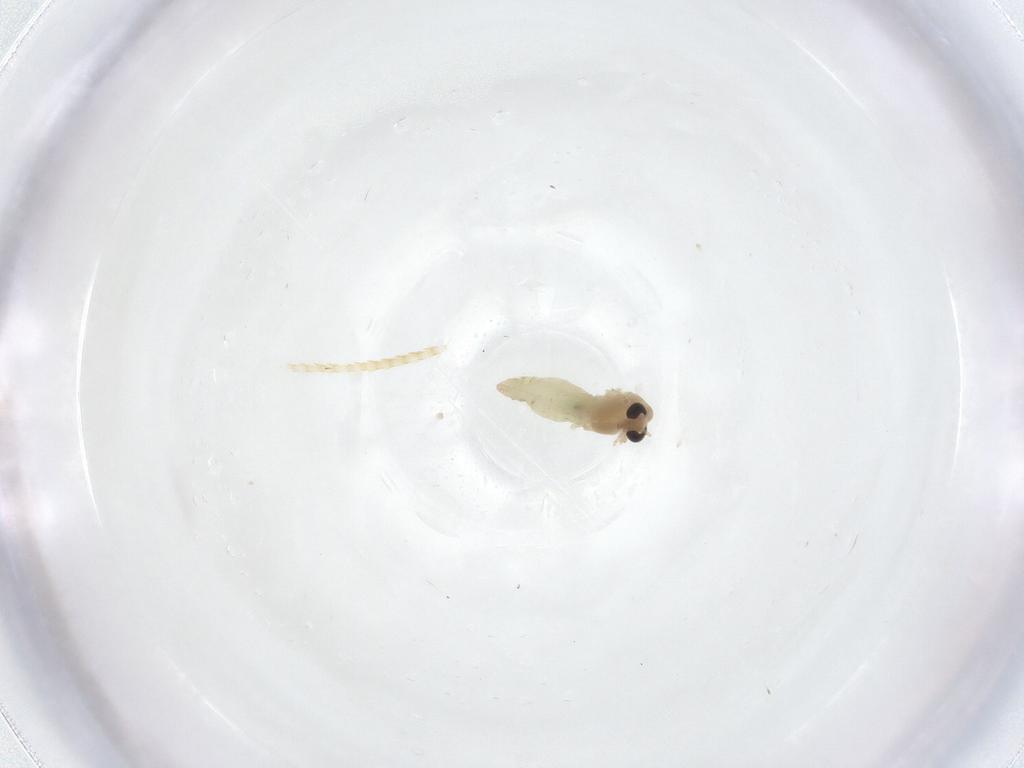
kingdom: Animalia
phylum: Arthropoda
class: Insecta
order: Diptera
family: Chironomidae
